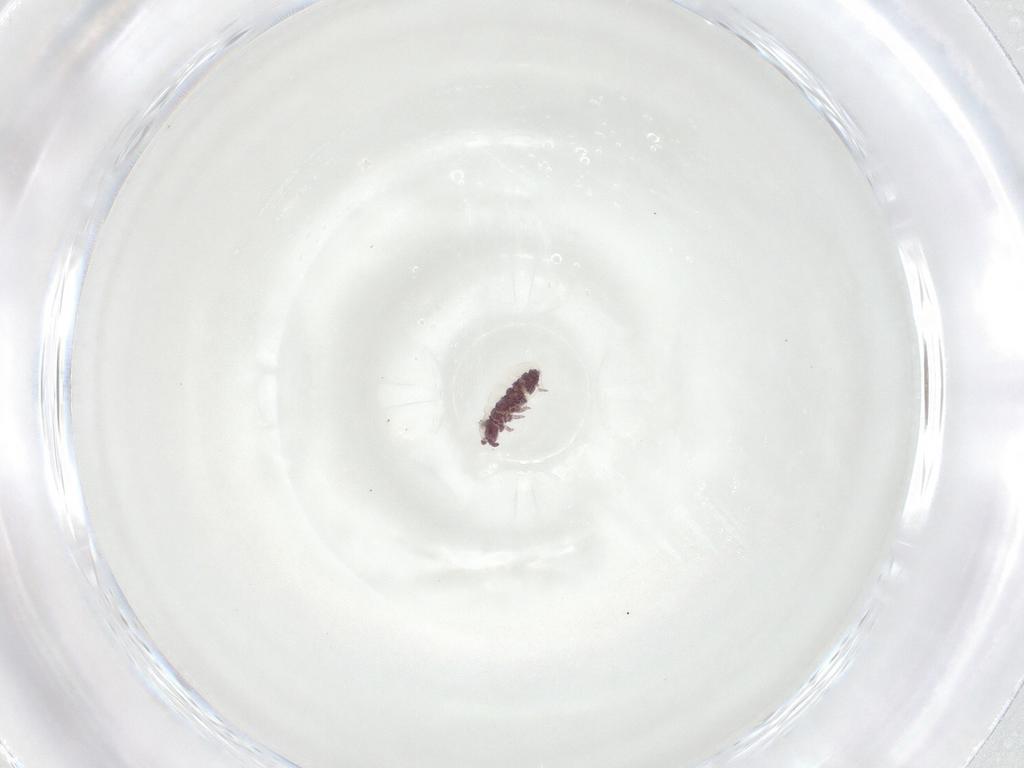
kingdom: Animalia
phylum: Arthropoda
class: Collembola
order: Poduromorpha
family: Brachystomellidae
